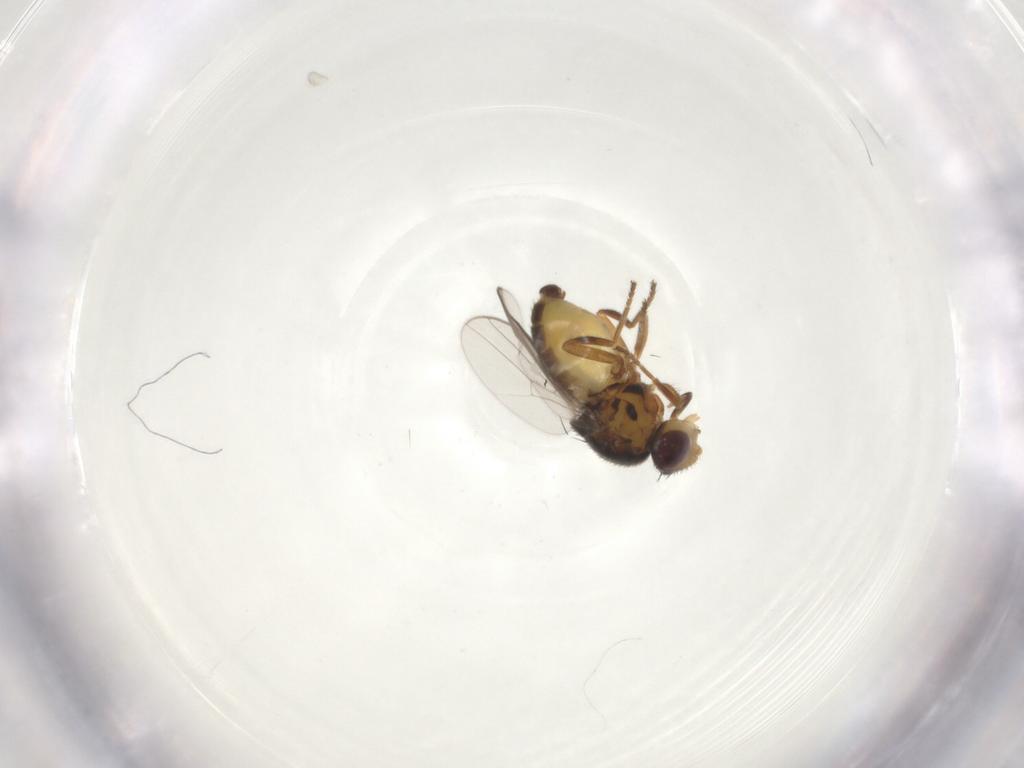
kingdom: Animalia
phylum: Arthropoda
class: Insecta
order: Diptera
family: Chloropidae
